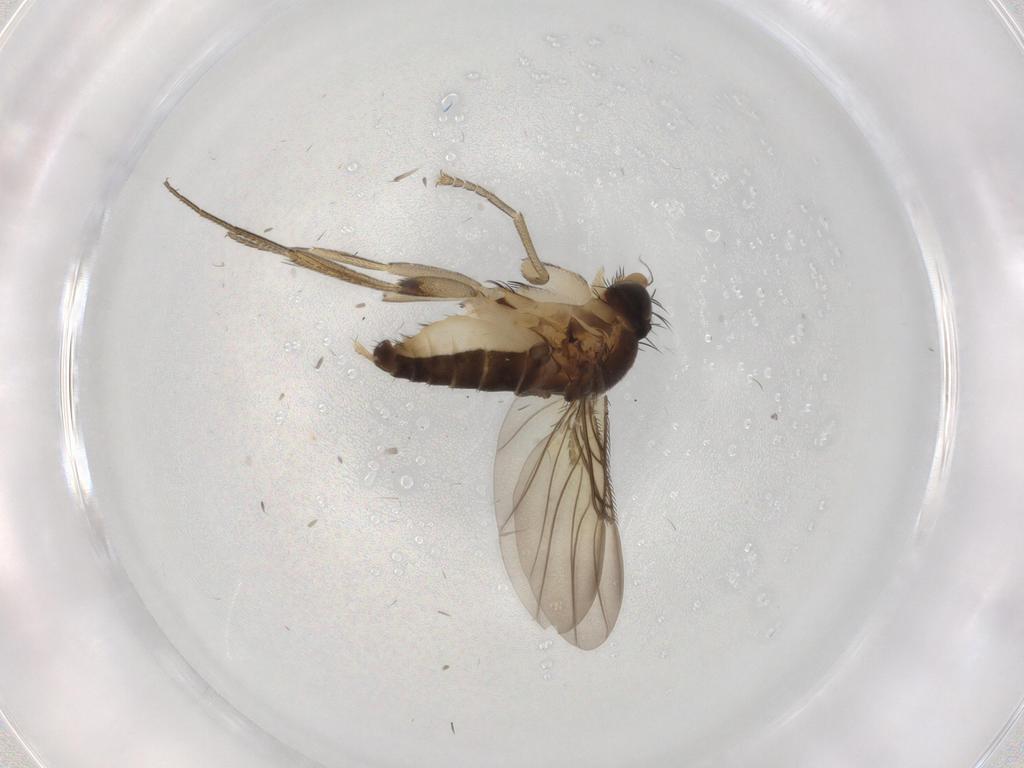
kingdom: Animalia
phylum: Arthropoda
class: Insecta
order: Diptera
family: Phoridae
